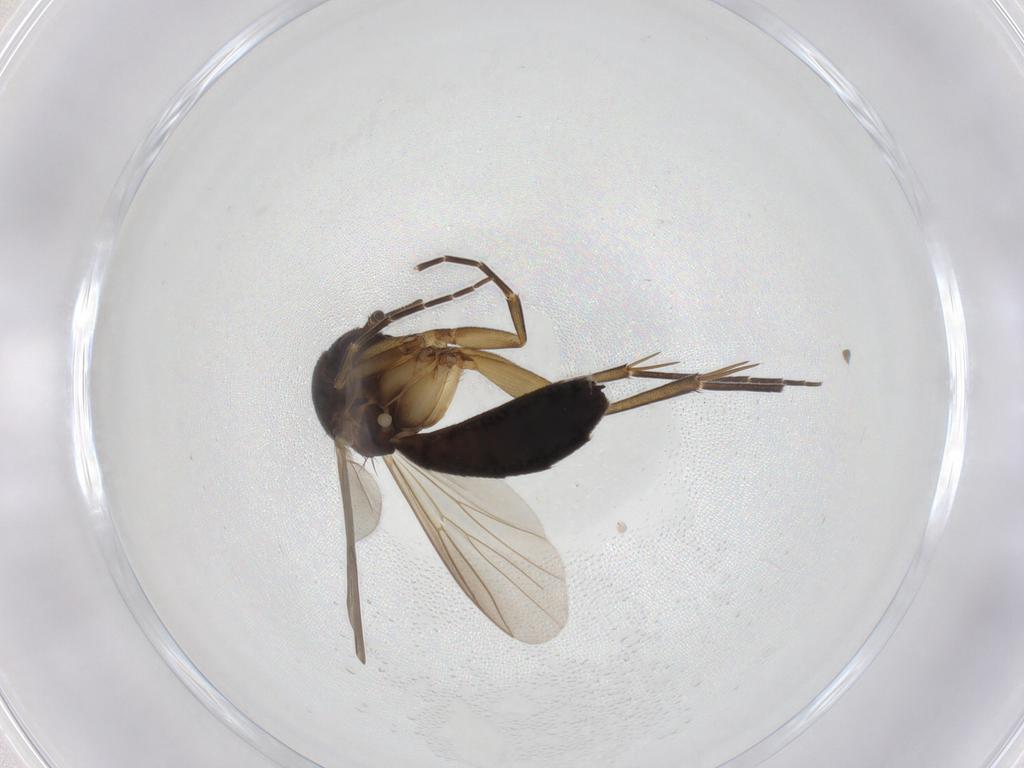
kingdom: Animalia
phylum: Arthropoda
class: Insecta
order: Diptera
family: Mycetophilidae
